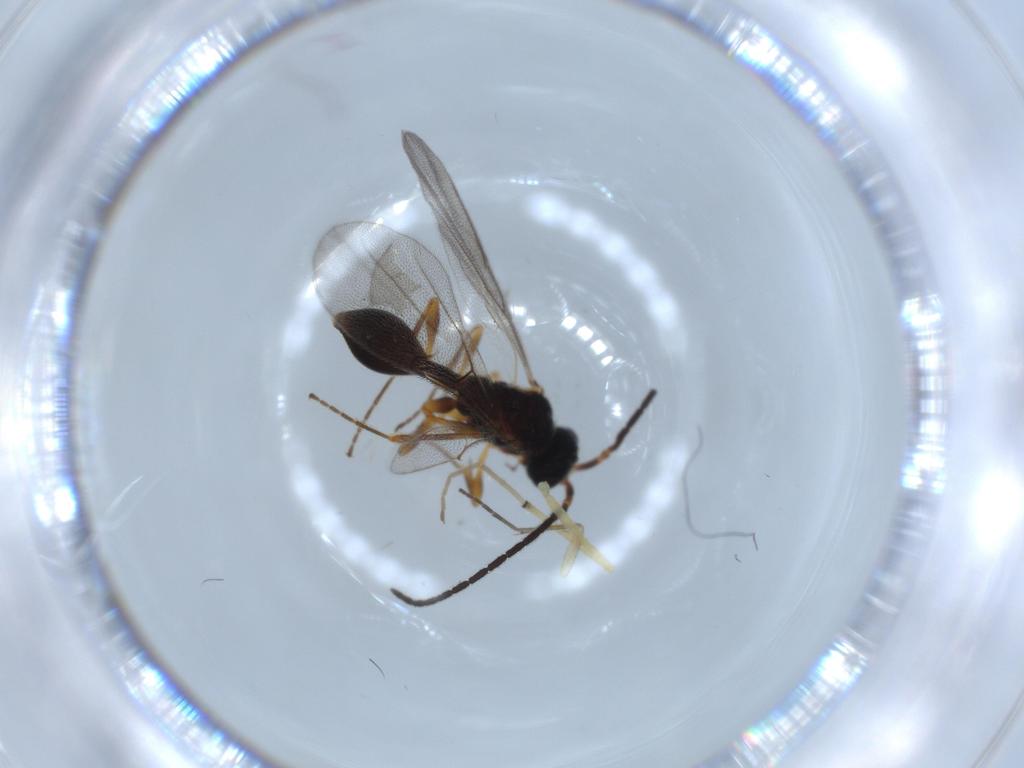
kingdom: Animalia
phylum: Arthropoda
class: Insecta
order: Hymenoptera
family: Diapriidae
